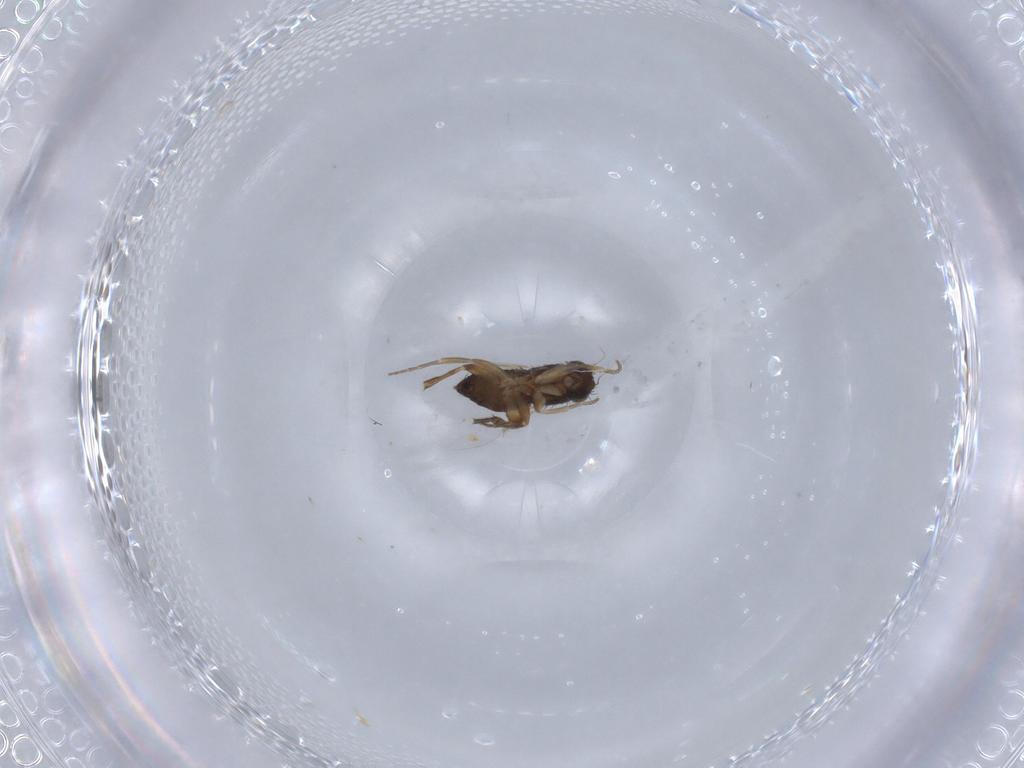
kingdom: Animalia
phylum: Arthropoda
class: Insecta
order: Diptera
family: Phoridae
